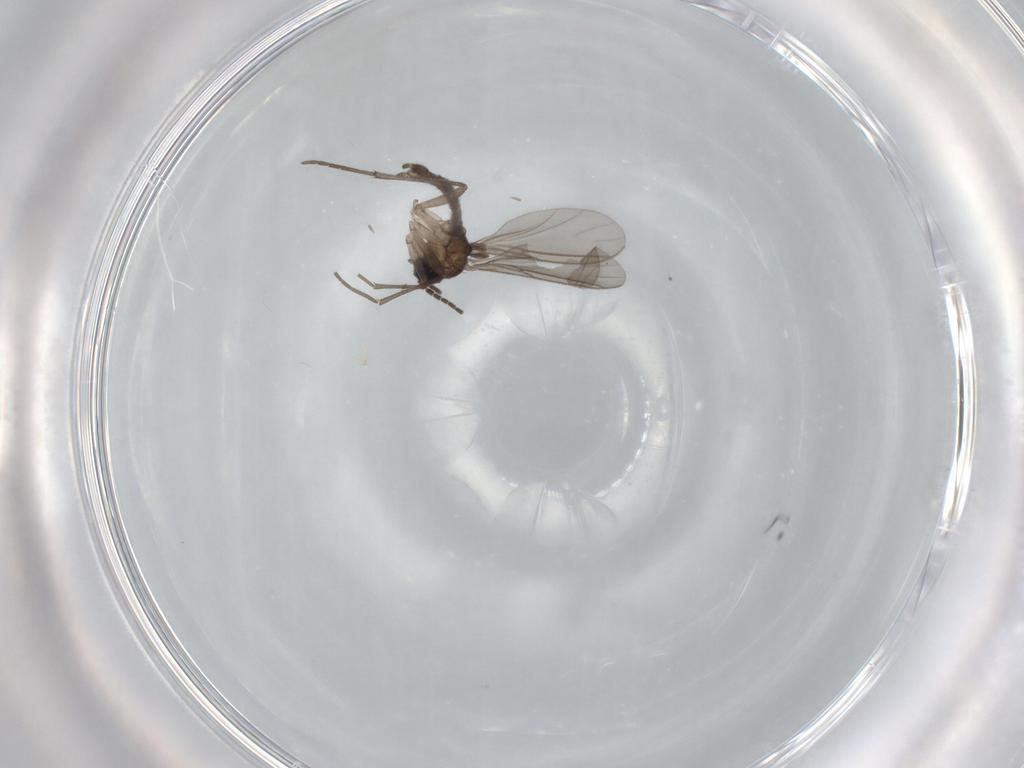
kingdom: Animalia
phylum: Arthropoda
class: Insecta
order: Diptera
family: Sciaridae
